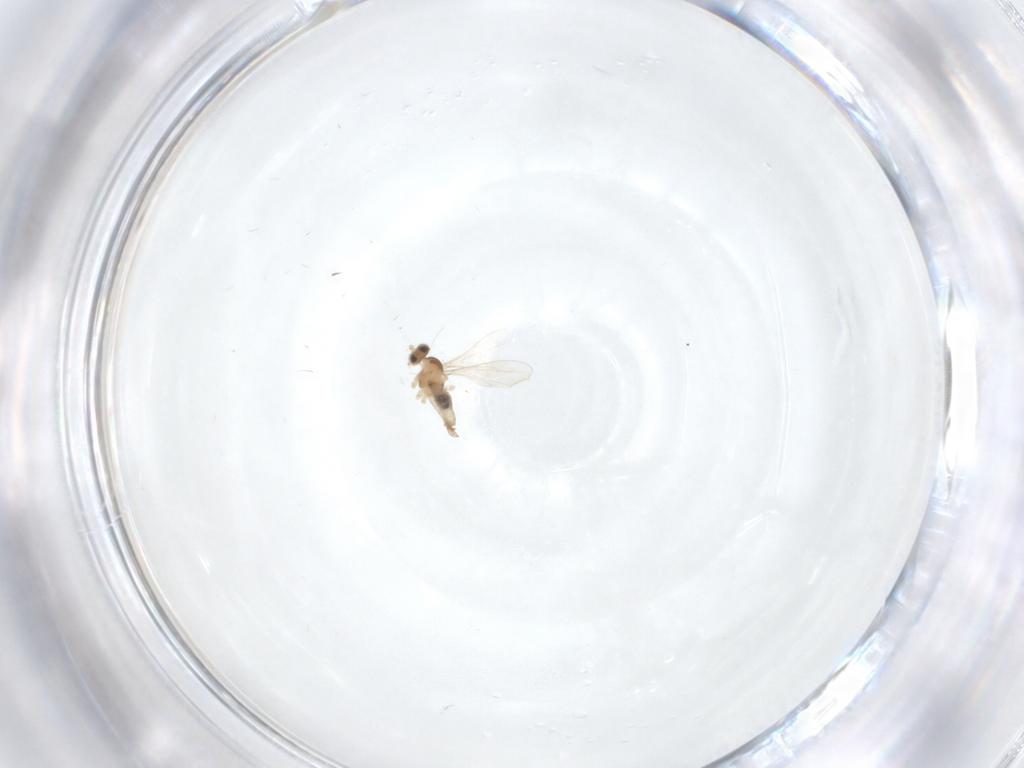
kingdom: Animalia
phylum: Arthropoda
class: Insecta
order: Diptera
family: Cecidomyiidae
